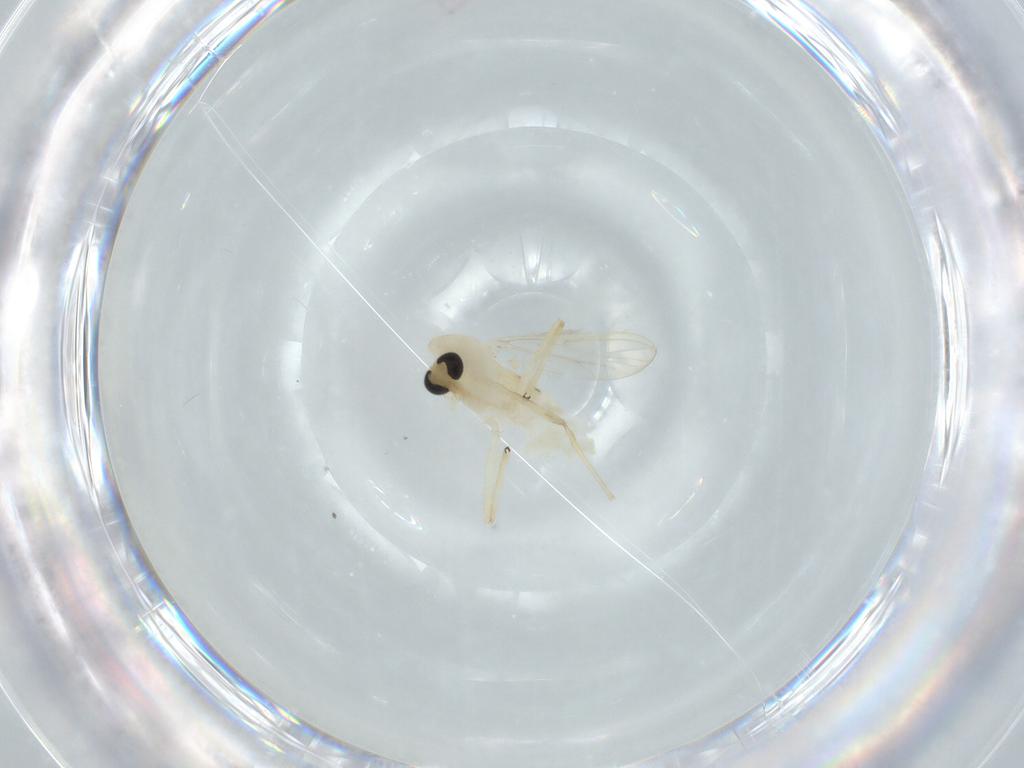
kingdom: Animalia
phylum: Arthropoda
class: Insecta
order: Diptera
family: Chironomidae
